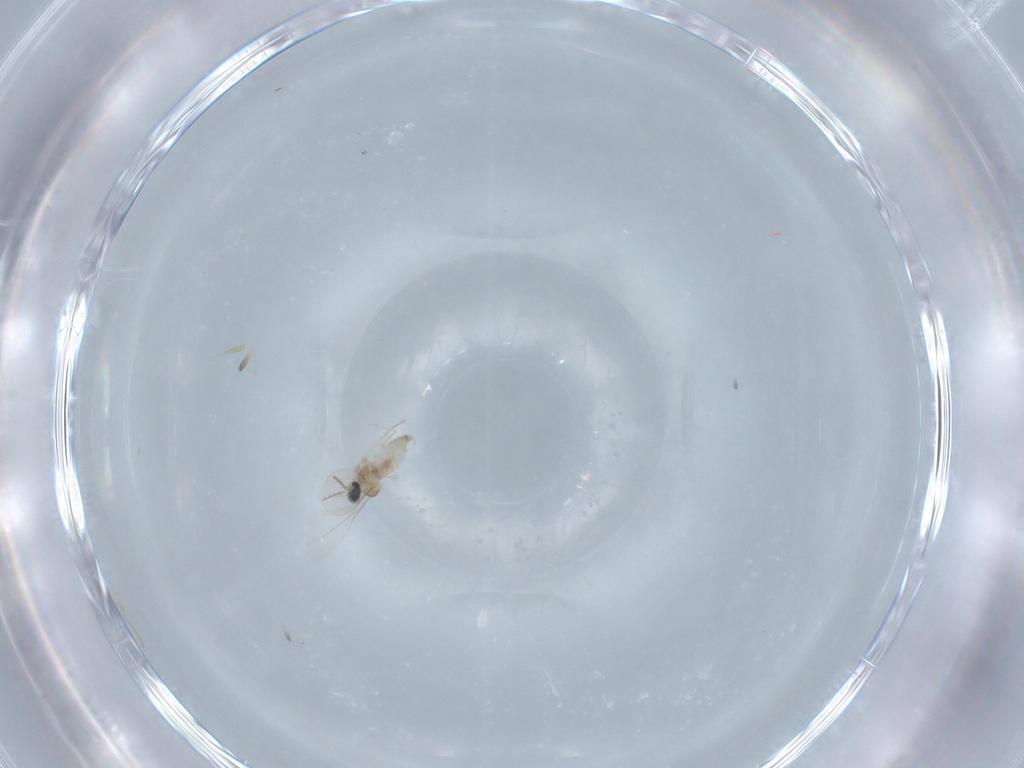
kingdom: Animalia
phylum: Arthropoda
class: Insecta
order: Diptera
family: Cecidomyiidae
